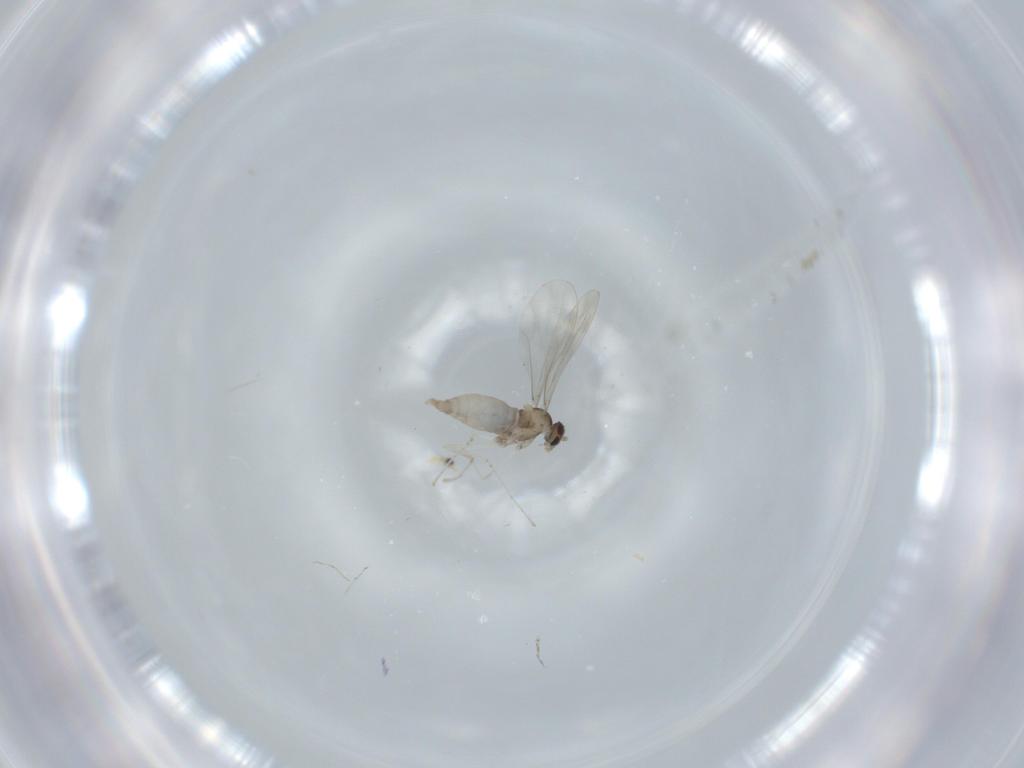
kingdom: Animalia
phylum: Arthropoda
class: Insecta
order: Diptera
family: Cecidomyiidae
